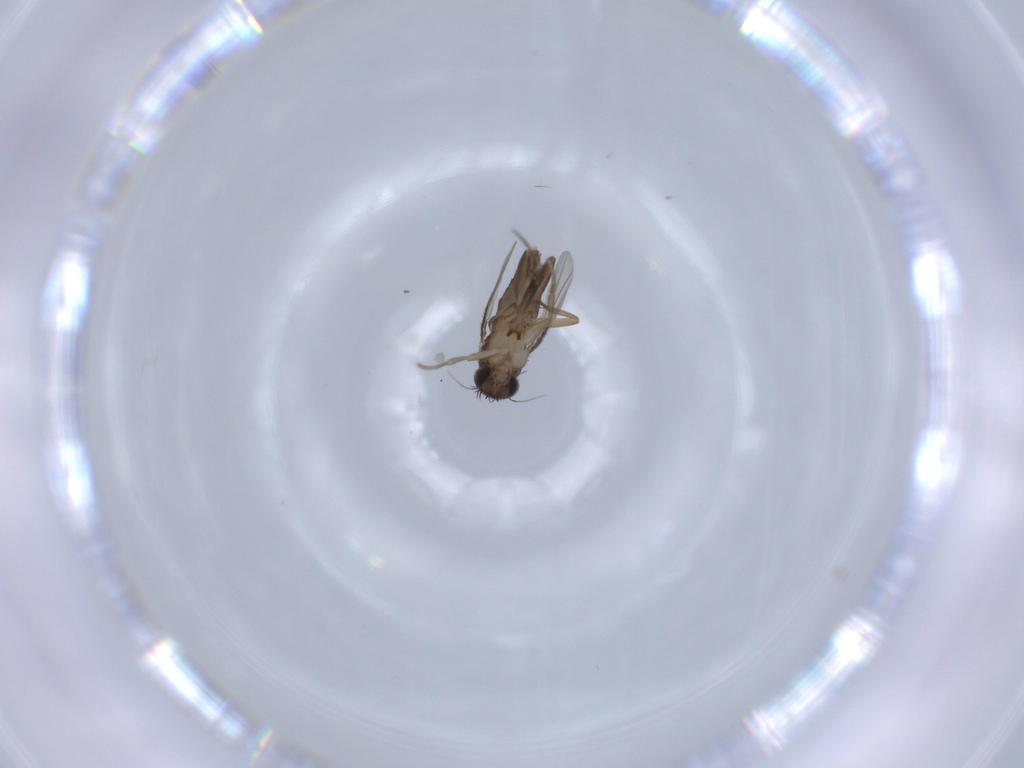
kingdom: Animalia
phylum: Arthropoda
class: Insecta
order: Diptera
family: Phoridae
